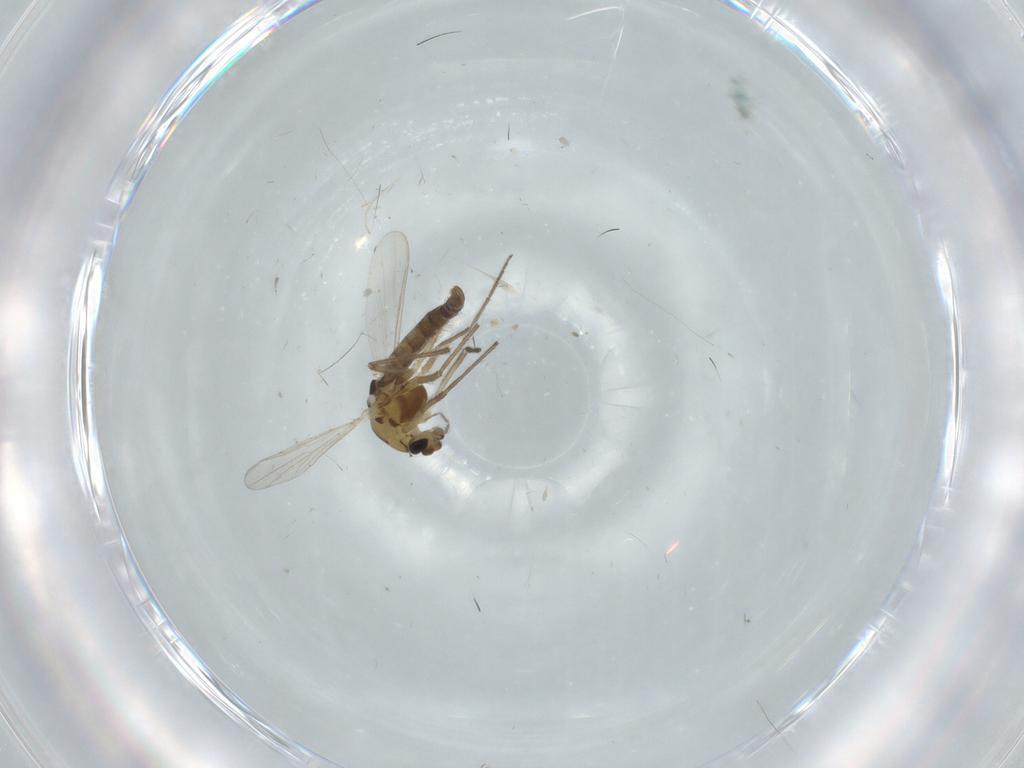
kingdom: Animalia
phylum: Arthropoda
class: Insecta
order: Diptera
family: Chironomidae
